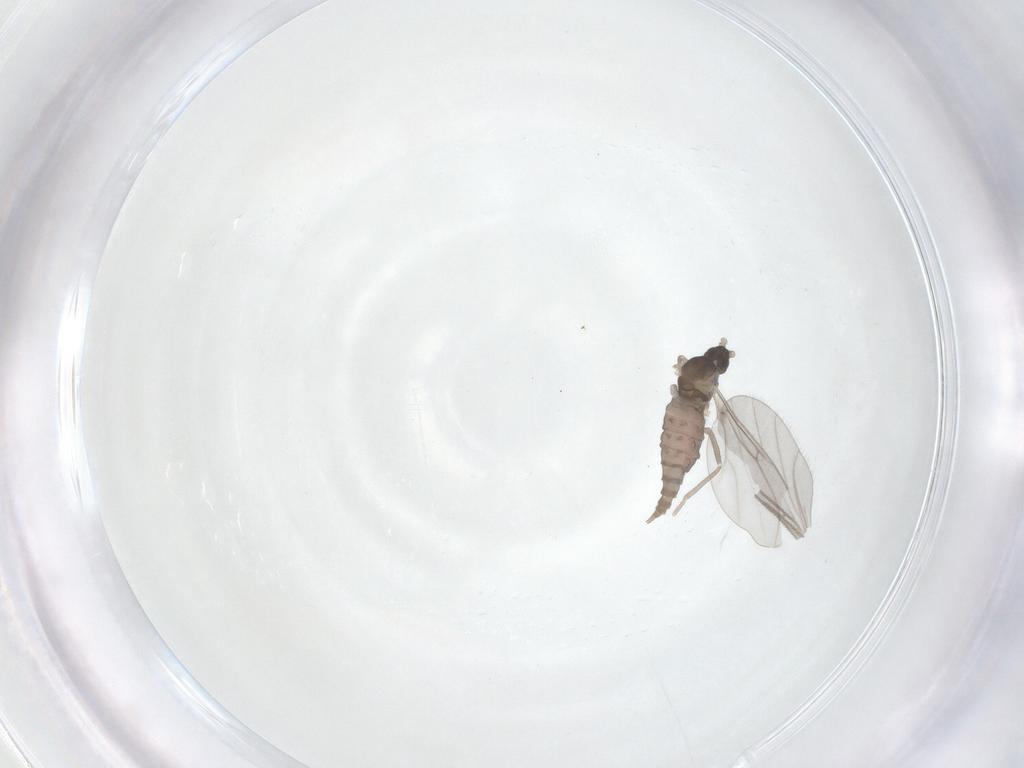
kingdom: Animalia
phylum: Arthropoda
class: Insecta
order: Diptera
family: Cecidomyiidae
